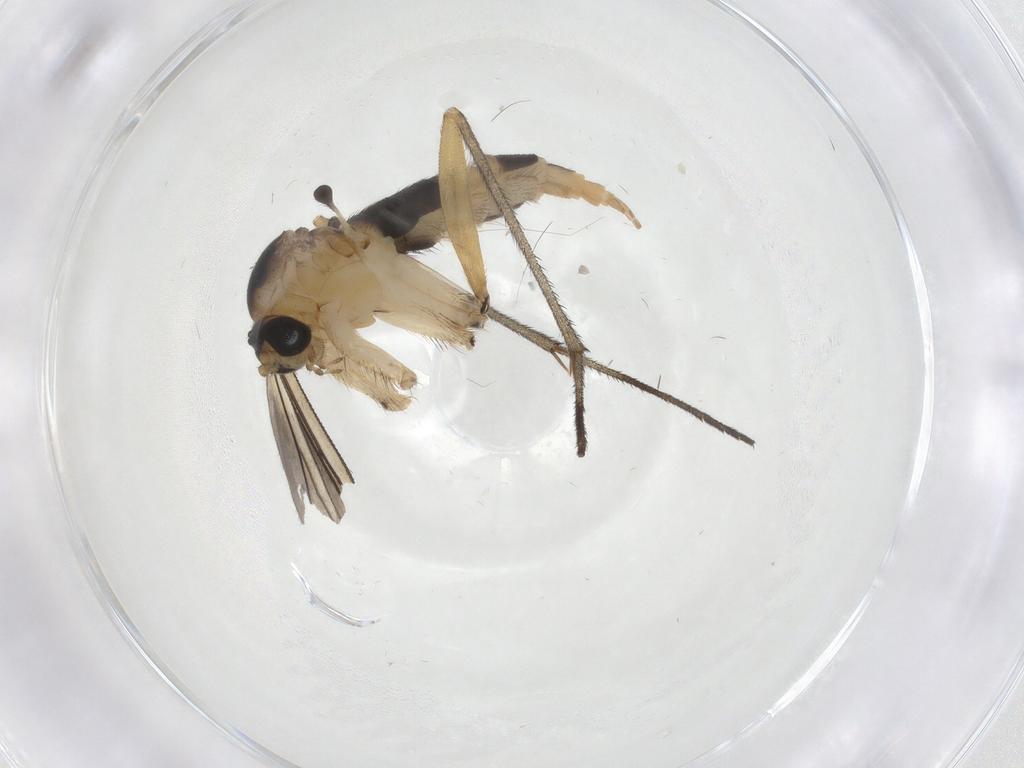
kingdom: Animalia
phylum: Arthropoda
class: Insecta
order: Diptera
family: Sciaridae
